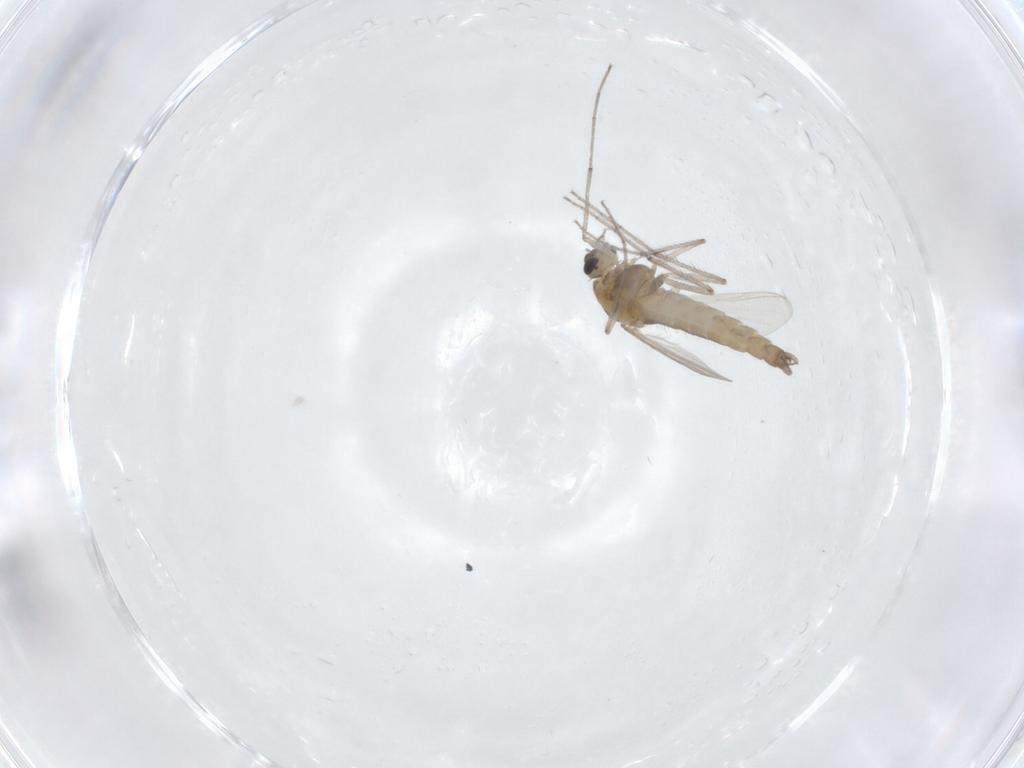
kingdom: Animalia
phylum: Arthropoda
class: Insecta
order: Diptera
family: Chironomidae
